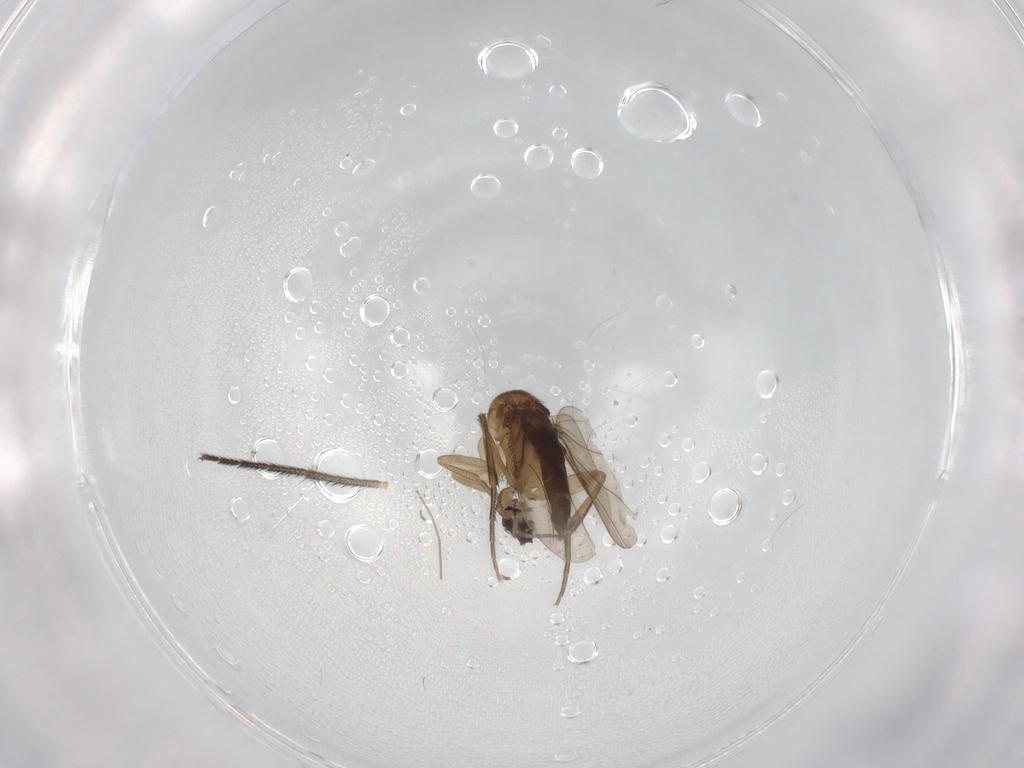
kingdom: Animalia
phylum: Arthropoda
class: Insecta
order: Diptera
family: Phoridae
